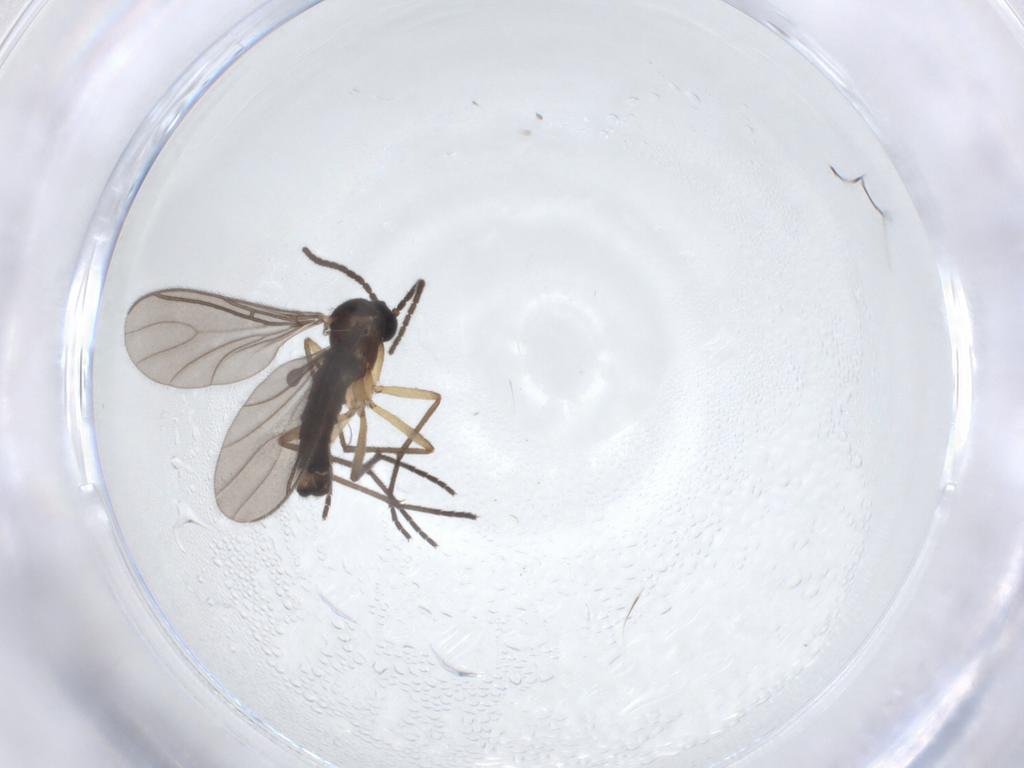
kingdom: Animalia
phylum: Arthropoda
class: Insecta
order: Diptera
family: Sciaridae
